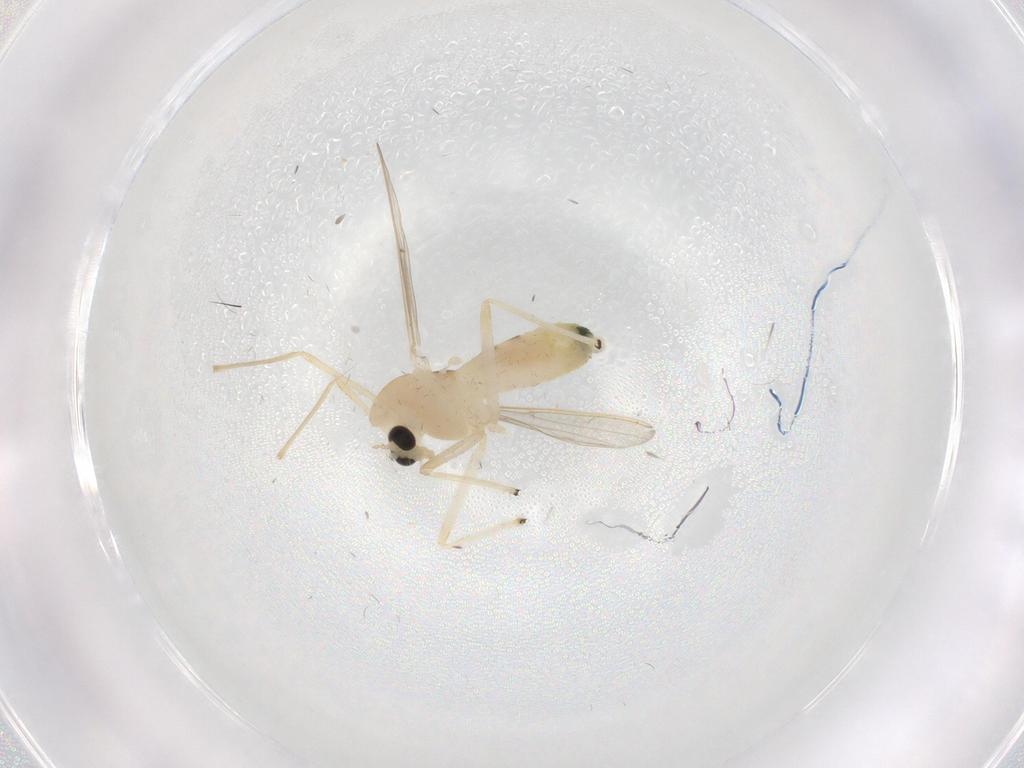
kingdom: Animalia
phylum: Arthropoda
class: Insecta
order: Diptera
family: Chironomidae
